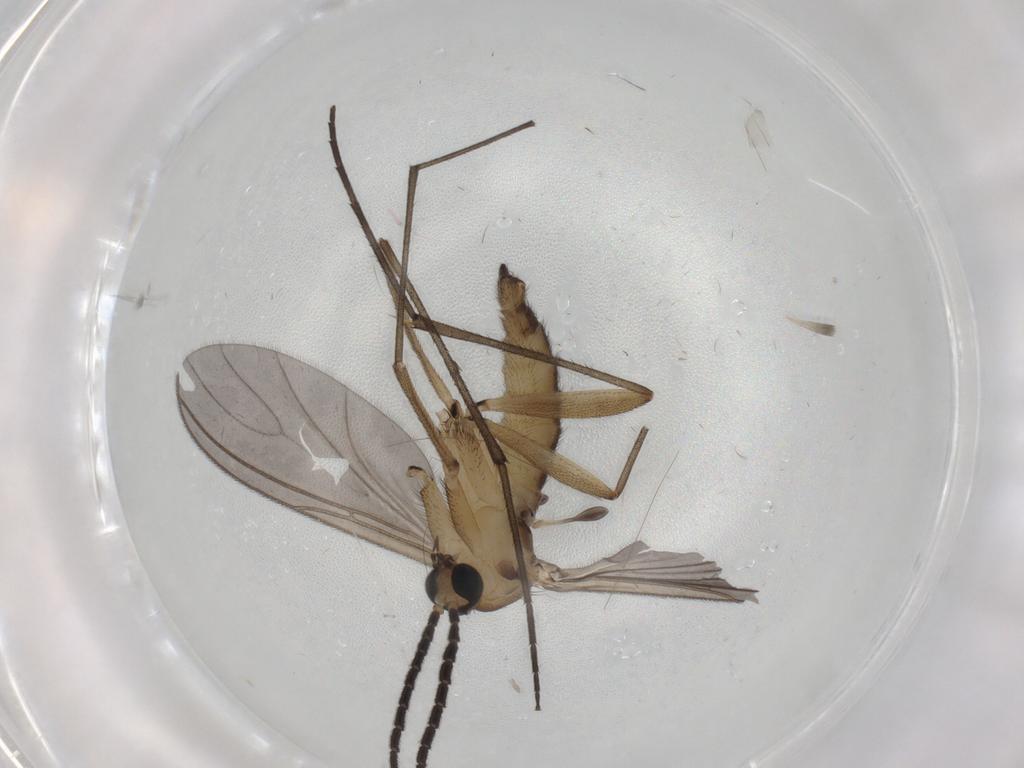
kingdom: Animalia
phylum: Arthropoda
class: Insecta
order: Diptera
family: Sciaridae
